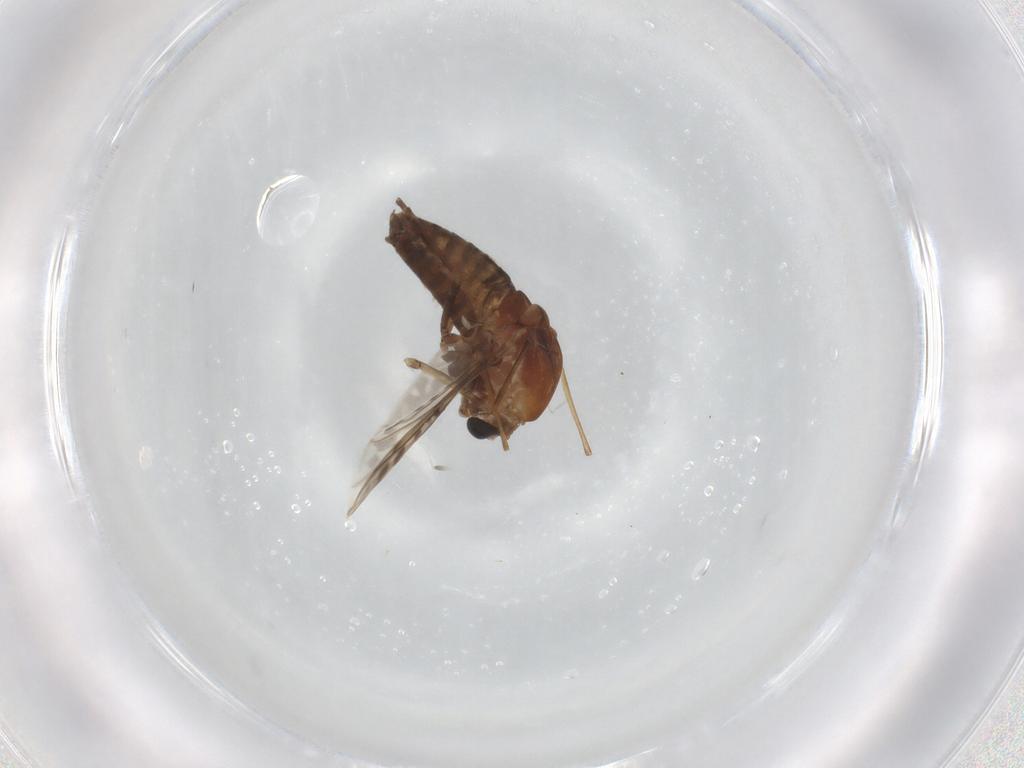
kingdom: Animalia
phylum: Arthropoda
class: Insecta
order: Diptera
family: Chironomidae
